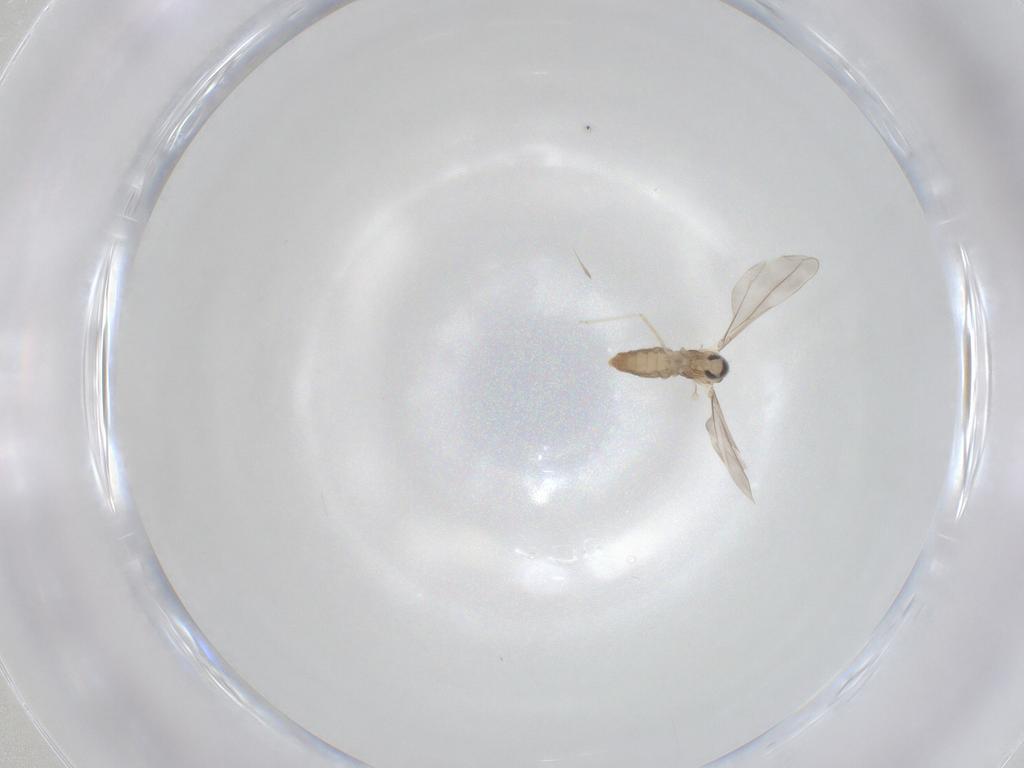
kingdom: Animalia
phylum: Arthropoda
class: Insecta
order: Diptera
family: Cecidomyiidae
